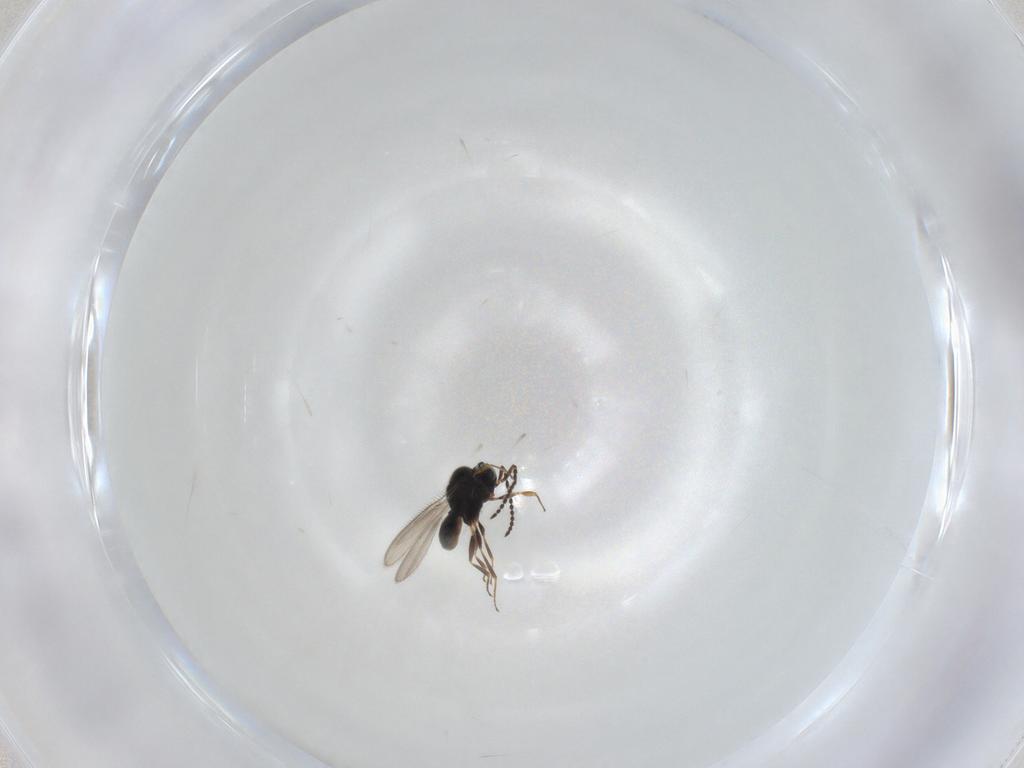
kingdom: Animalia
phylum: Arthropoda
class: Insecta
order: Hymenoptera
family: Scelionidae
